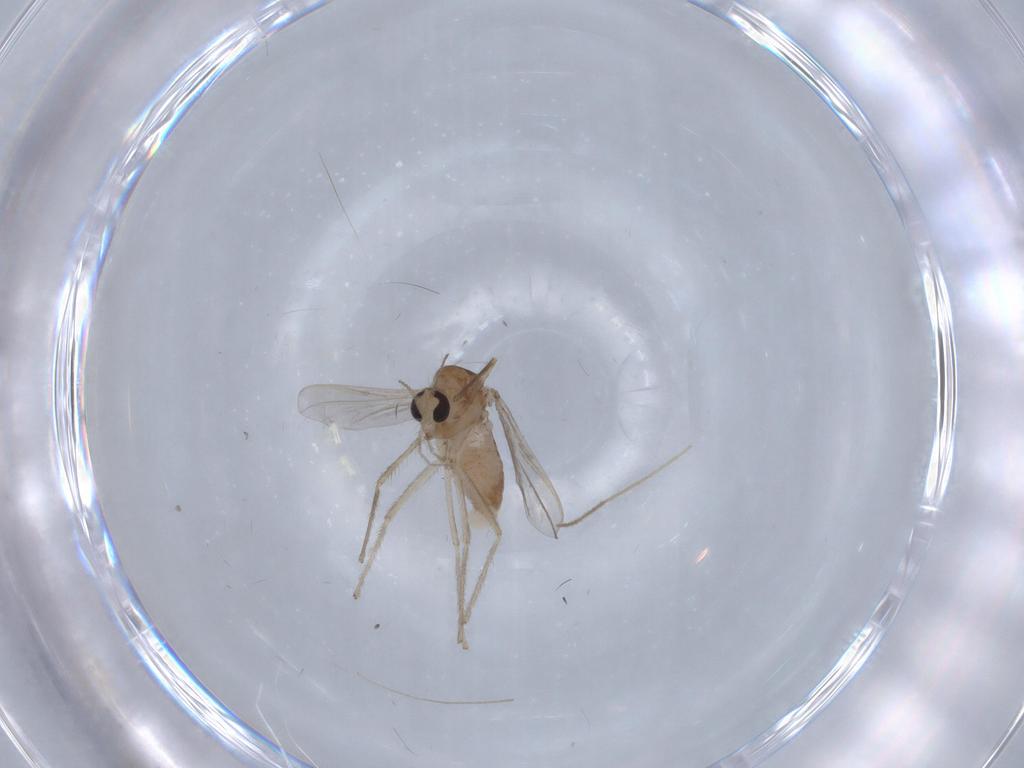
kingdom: Animalia
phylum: Arthropoda
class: Insecta
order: Diptera
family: Chironomidae
